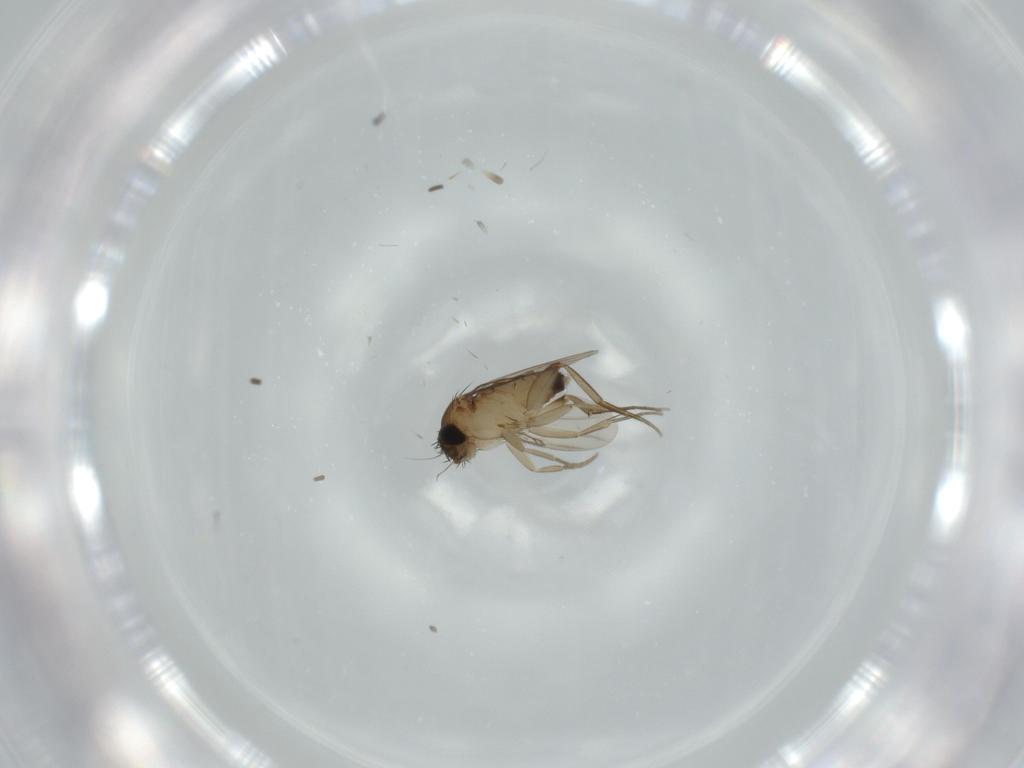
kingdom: Animalia
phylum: Arthropoda
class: Insecta
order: Diptera
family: Phoridae
